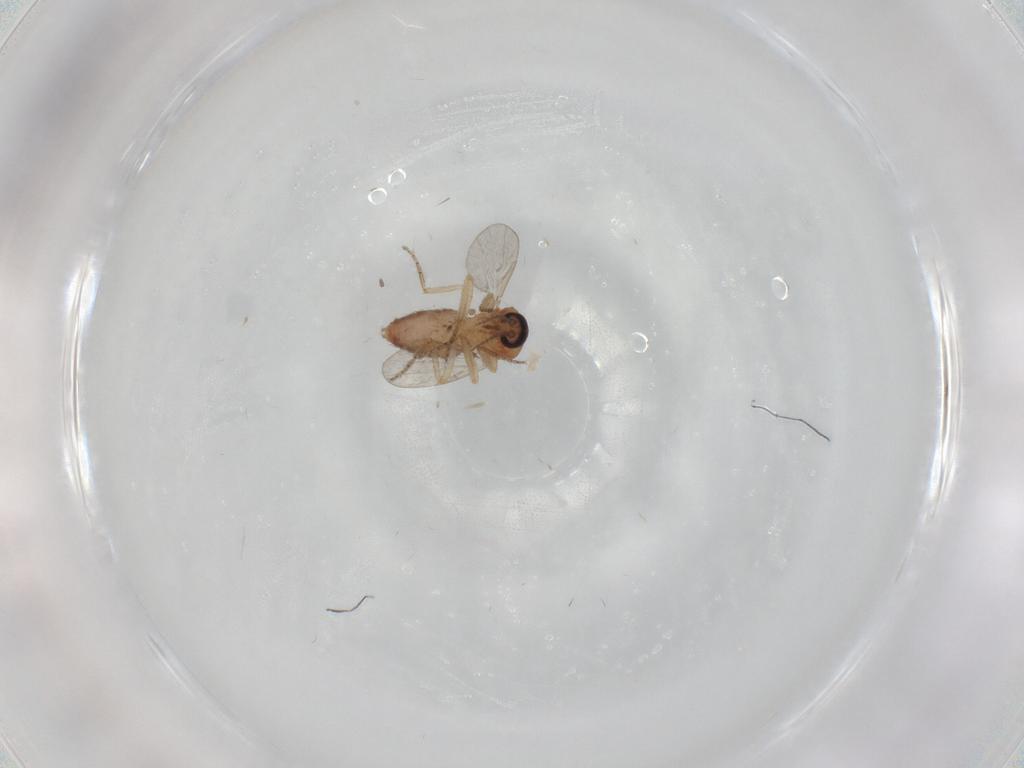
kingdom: Animalia
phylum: Arthropoda
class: Insecta
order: Diptera
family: Ceratopogonidae
